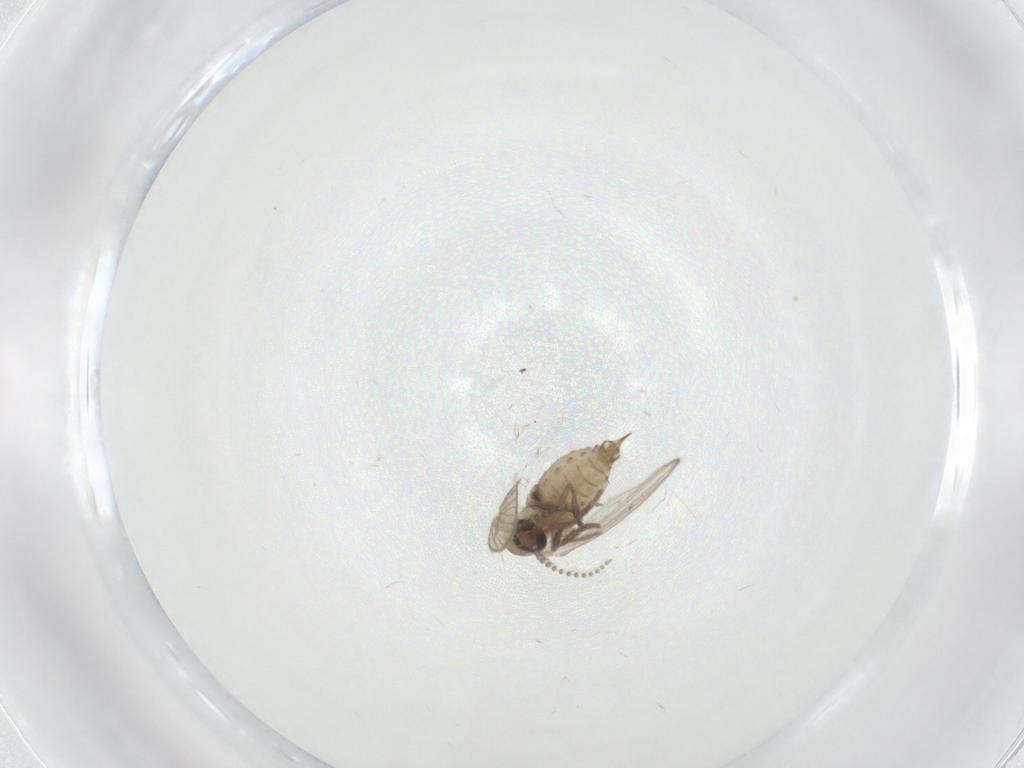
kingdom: Animalia
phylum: Arthropoda
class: Insecta
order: Diptera
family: Psychodidae
